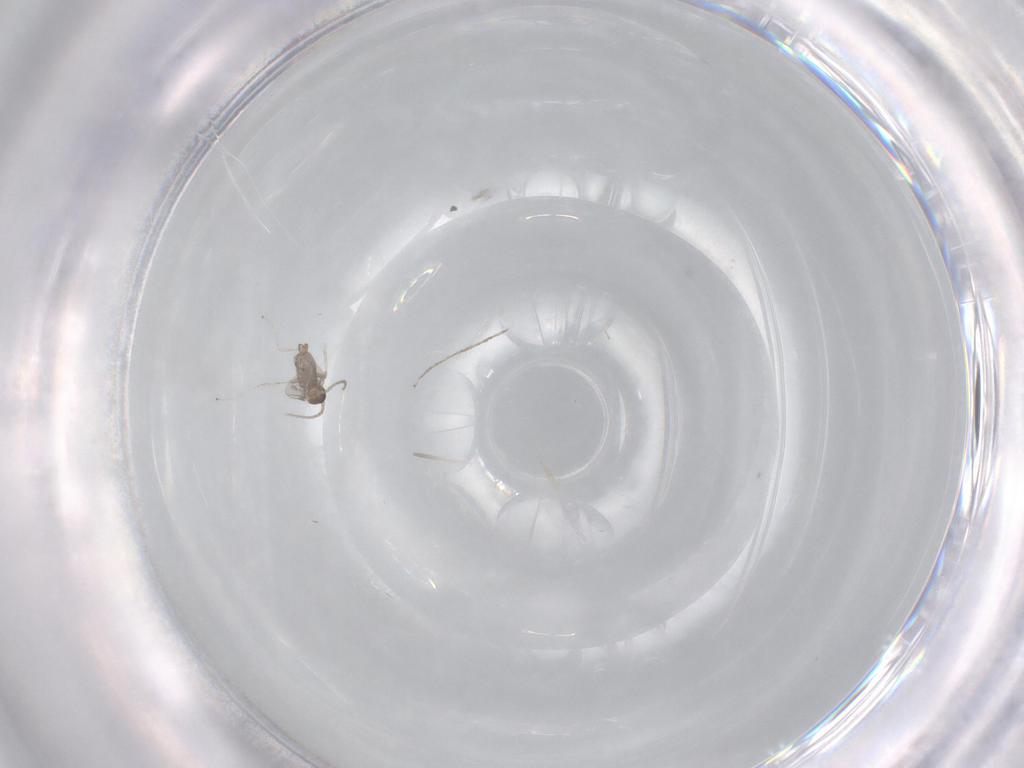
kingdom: Animalia
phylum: Arthropoda
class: Insecta
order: Diptera
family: Cecidomyiidae
